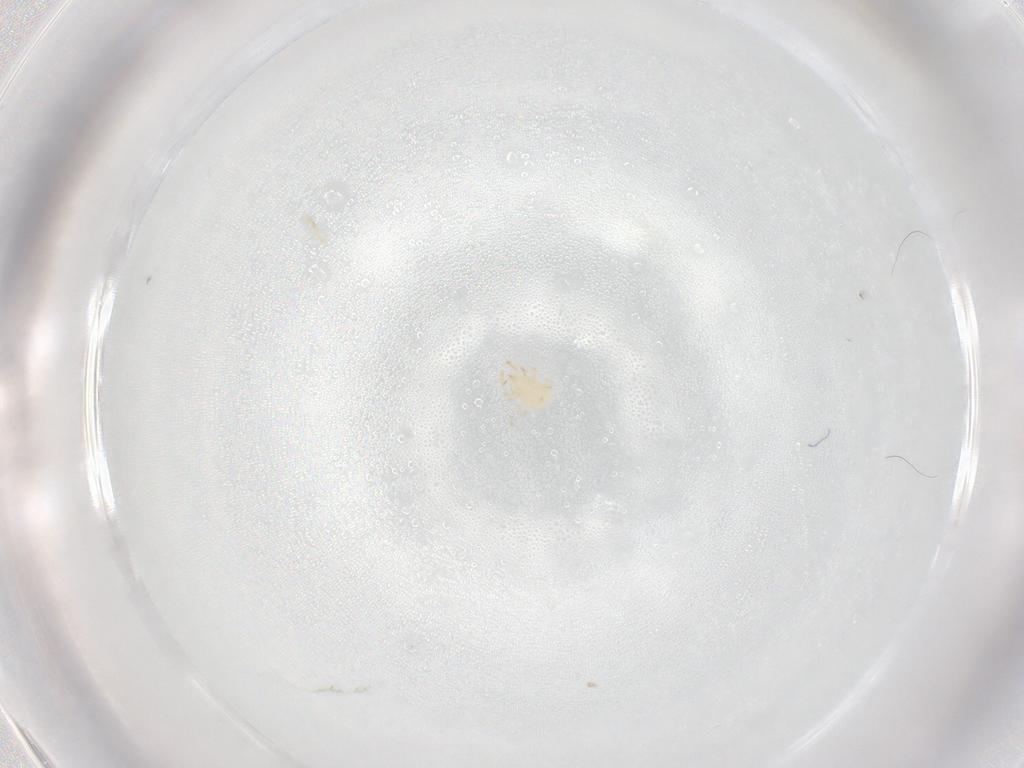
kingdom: Animalia
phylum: Arthropoda
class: Arachnida
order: Mesostigmata
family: Phytoseiidae
